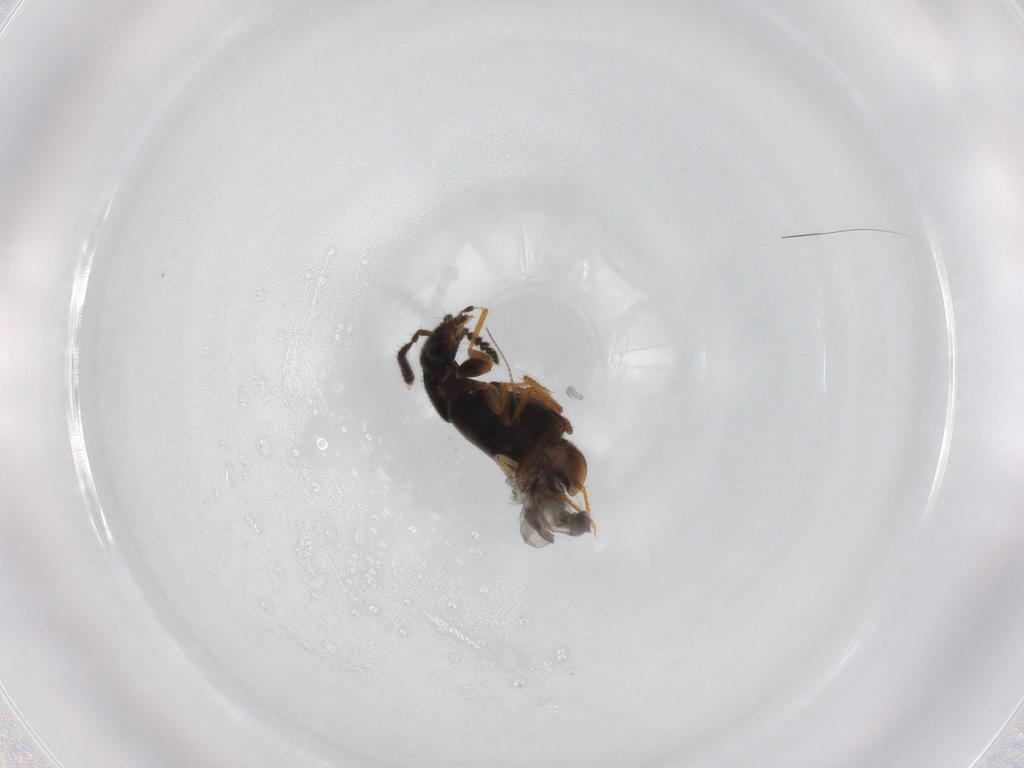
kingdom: Animalia
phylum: Arthropoda
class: Insecta
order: Coleoptera
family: Staphylinidae
